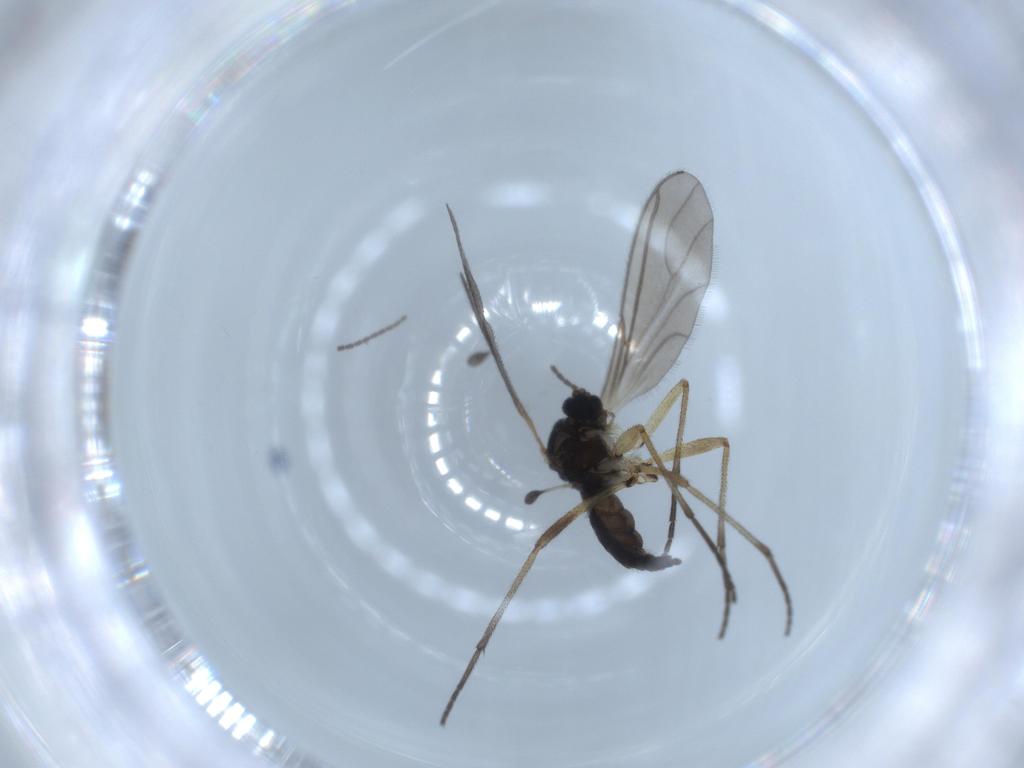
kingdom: Animalia
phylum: Arthropoda
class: Insecta
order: Diptera
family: Sciaridae
